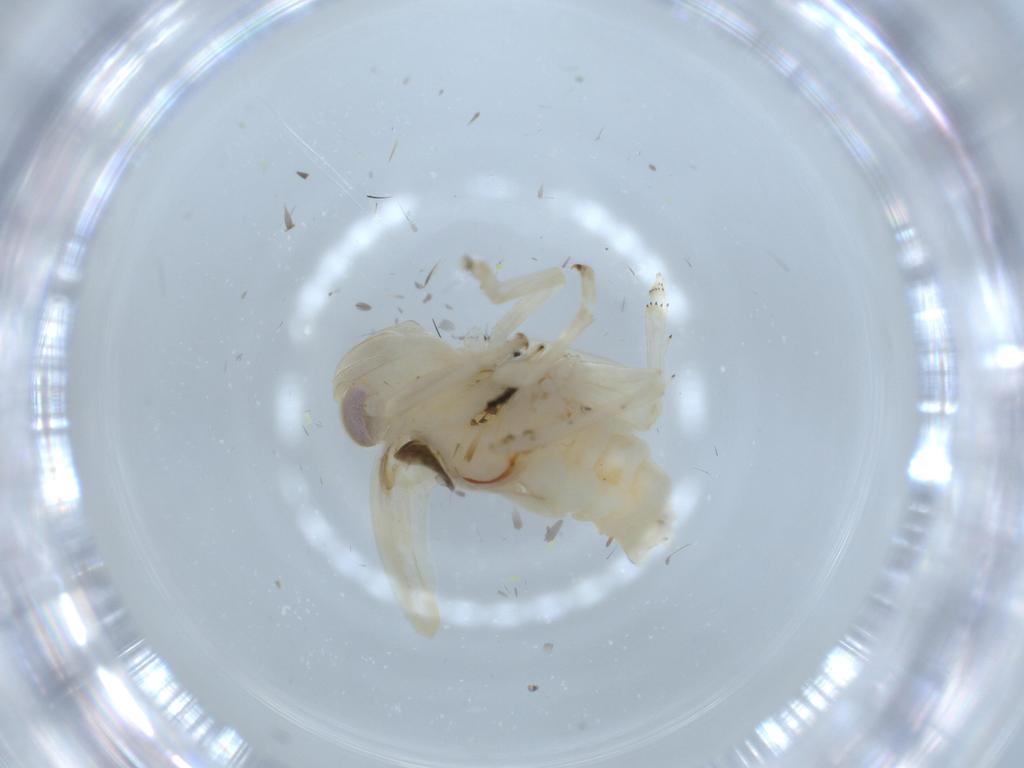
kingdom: Animalia
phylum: Arthropoda
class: Insecta
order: Hemiptera
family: Nogodinidae
